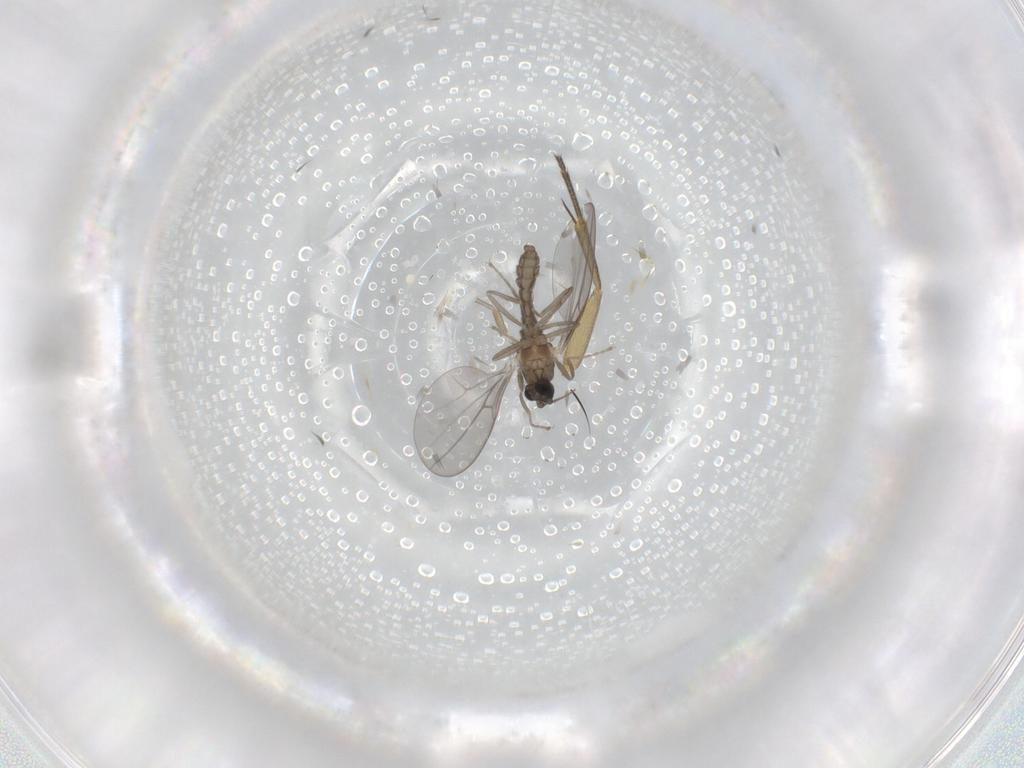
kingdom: Animalia
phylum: Arthropoda
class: Insecta
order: Diptera
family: Cecidomyiidae
